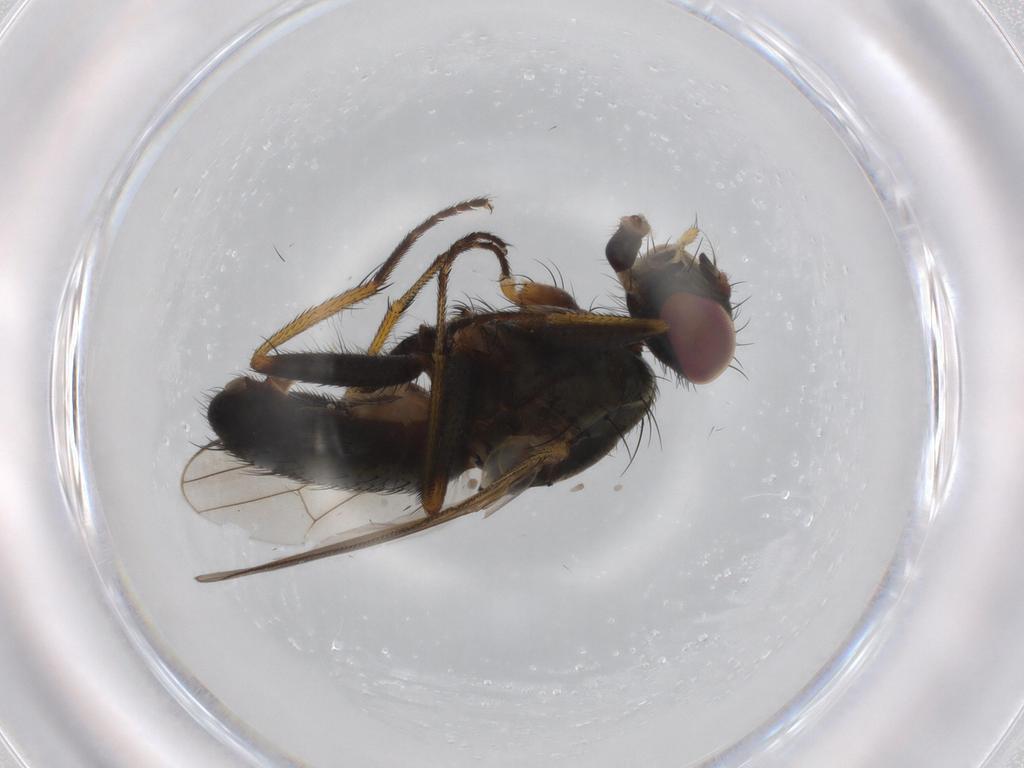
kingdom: Animalia
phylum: Arthropoda
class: Insecta
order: Diptera
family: Muscidae
